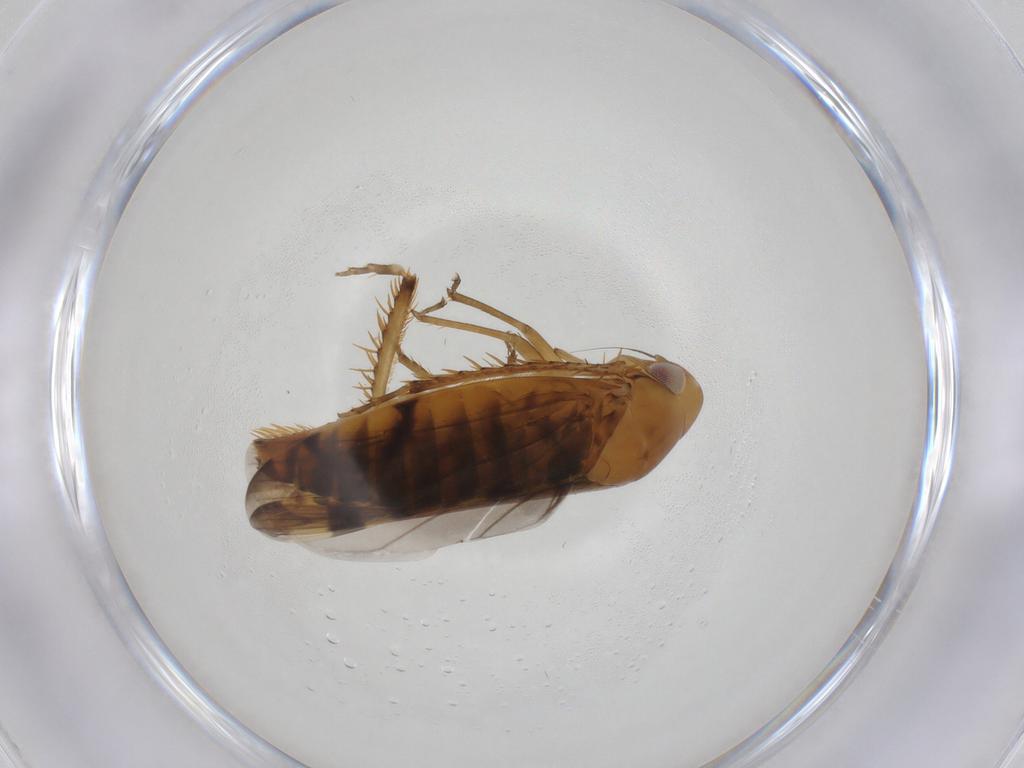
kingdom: Animalia
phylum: Arthropoda
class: Insecta
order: Hemiptera
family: Cicadellidae
